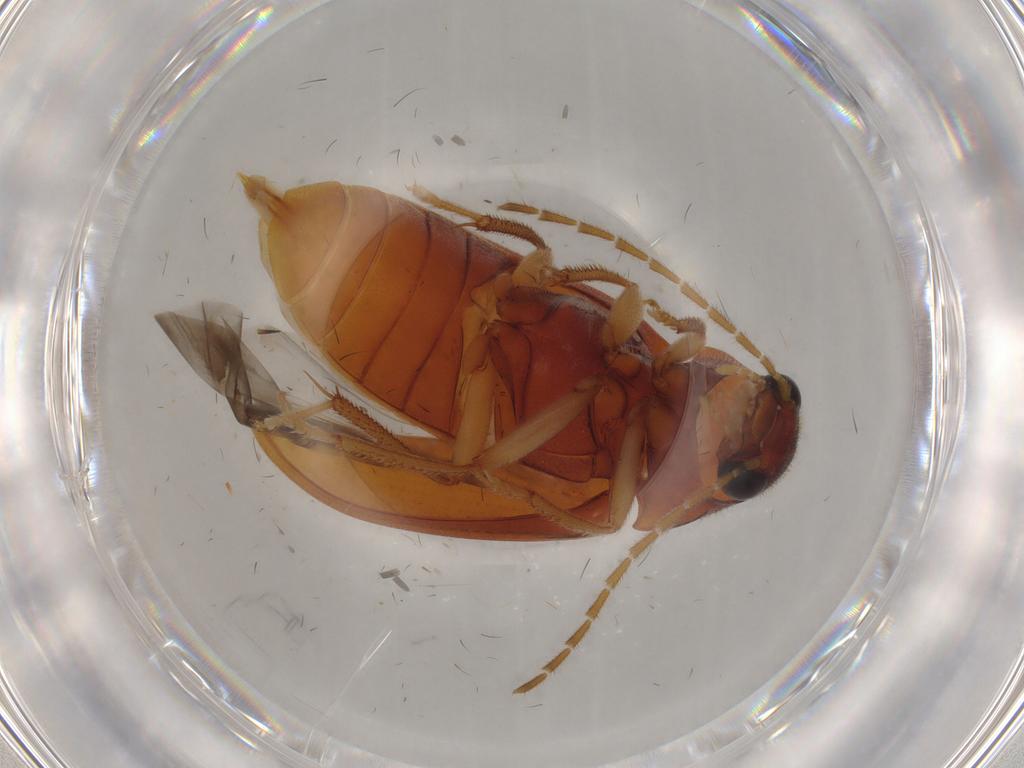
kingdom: Animalia
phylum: Arthropoda
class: Insecta
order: Coleoptera
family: Ptilodactylidae
